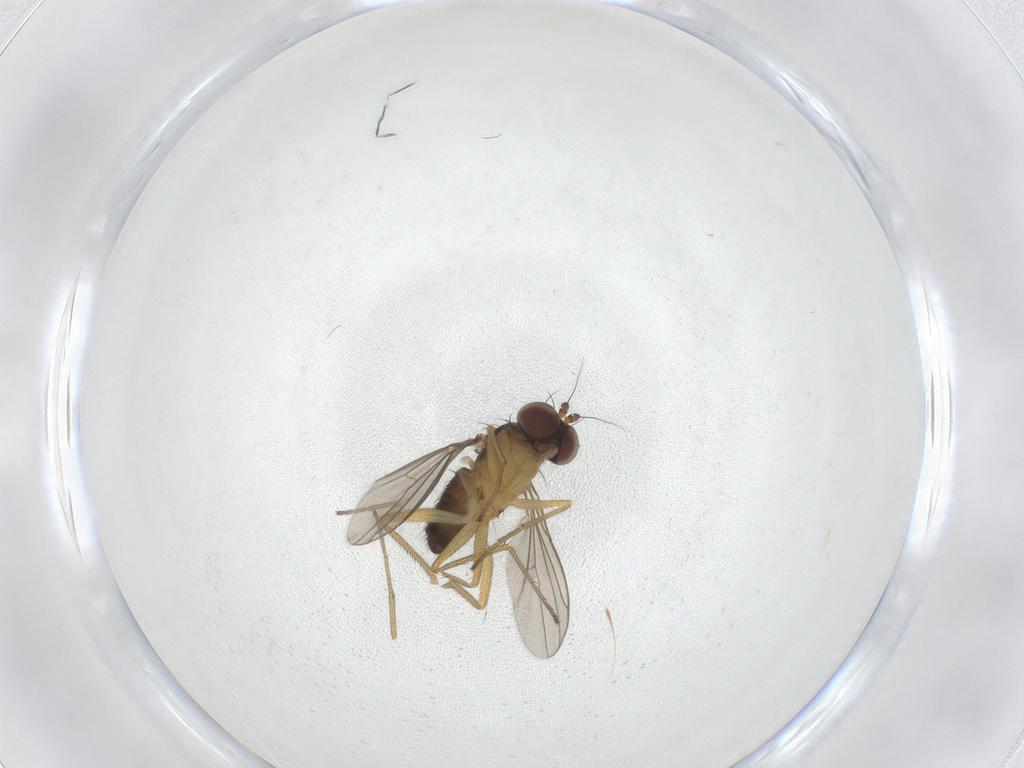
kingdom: Animalia
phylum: Arthropoda
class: Insecta
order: Diptera
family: Dolichopodidae
